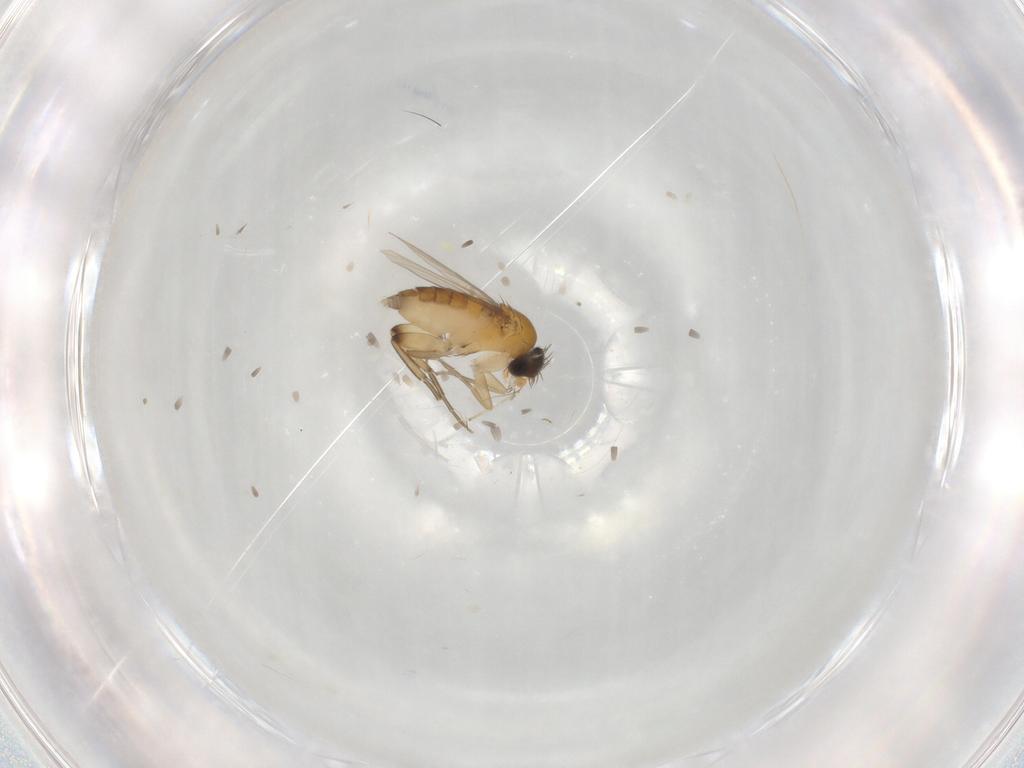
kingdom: Animalia
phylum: Arthropoda
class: Insecta
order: Diptera
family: Phoridae
